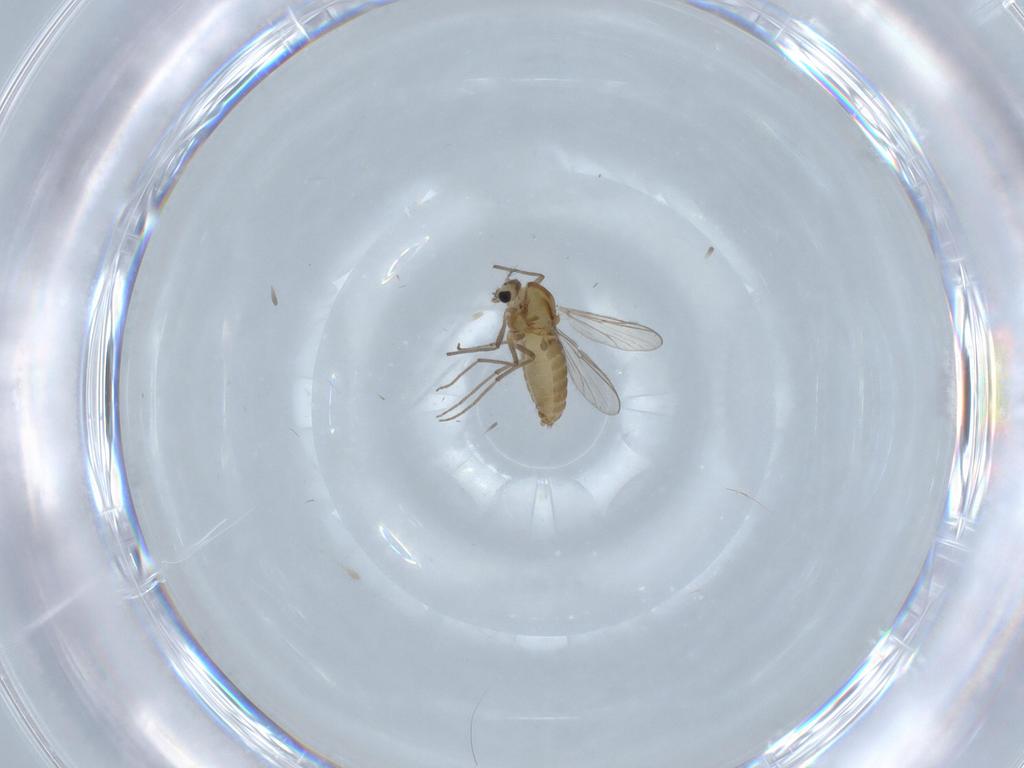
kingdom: Animalia
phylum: Arthropoda
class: Insecta
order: Diptera
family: Chironomidae
